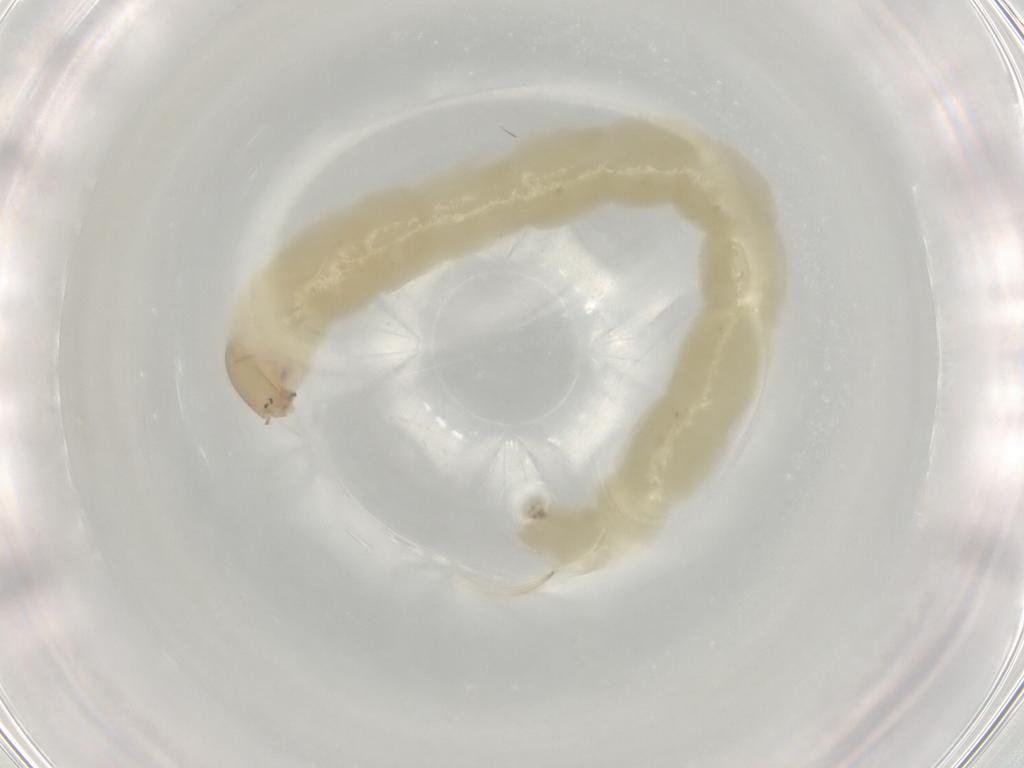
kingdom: Animalia
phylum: Arthropoda
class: Insecta
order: Diptera
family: Chironomidae
